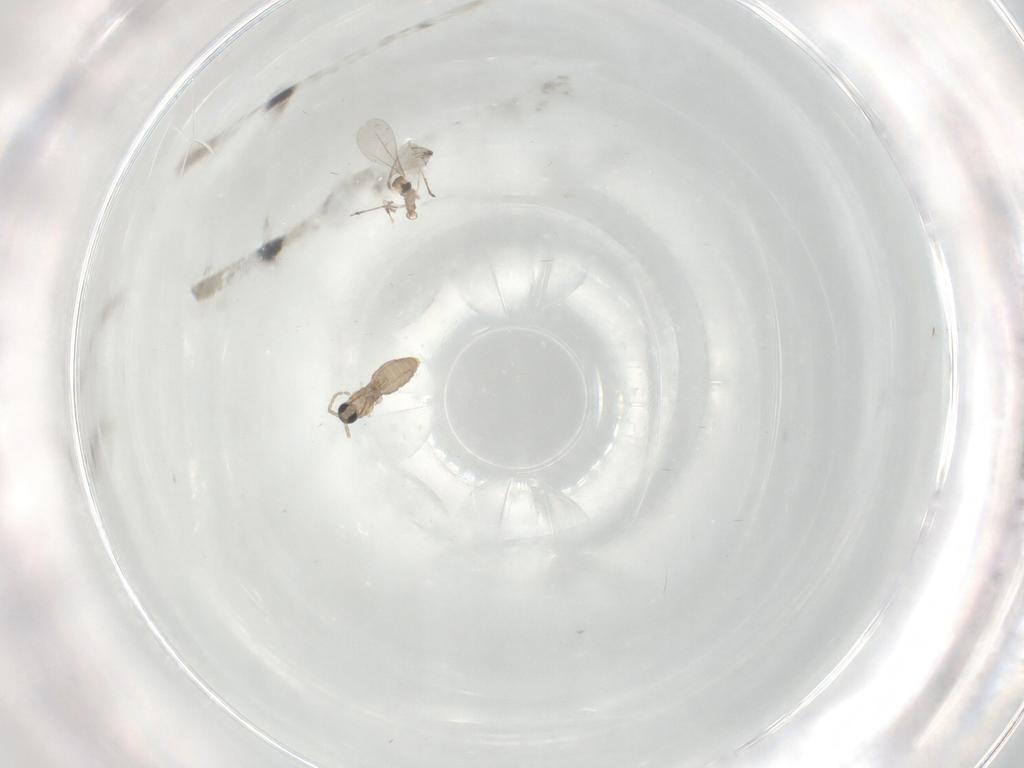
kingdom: Animalia
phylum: Arthropoda
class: Insecta
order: Diptera
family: Cecidomyiidae
